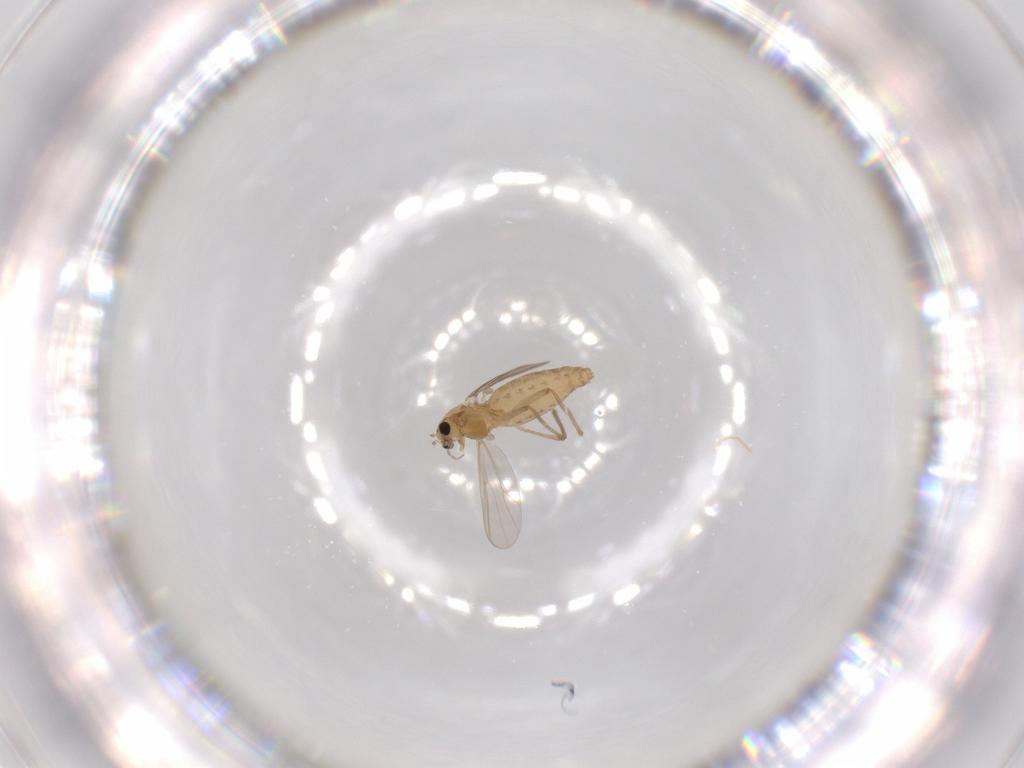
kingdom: Animalia
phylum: Arthropoda
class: Insecta
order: Diptera
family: Chironomidae
